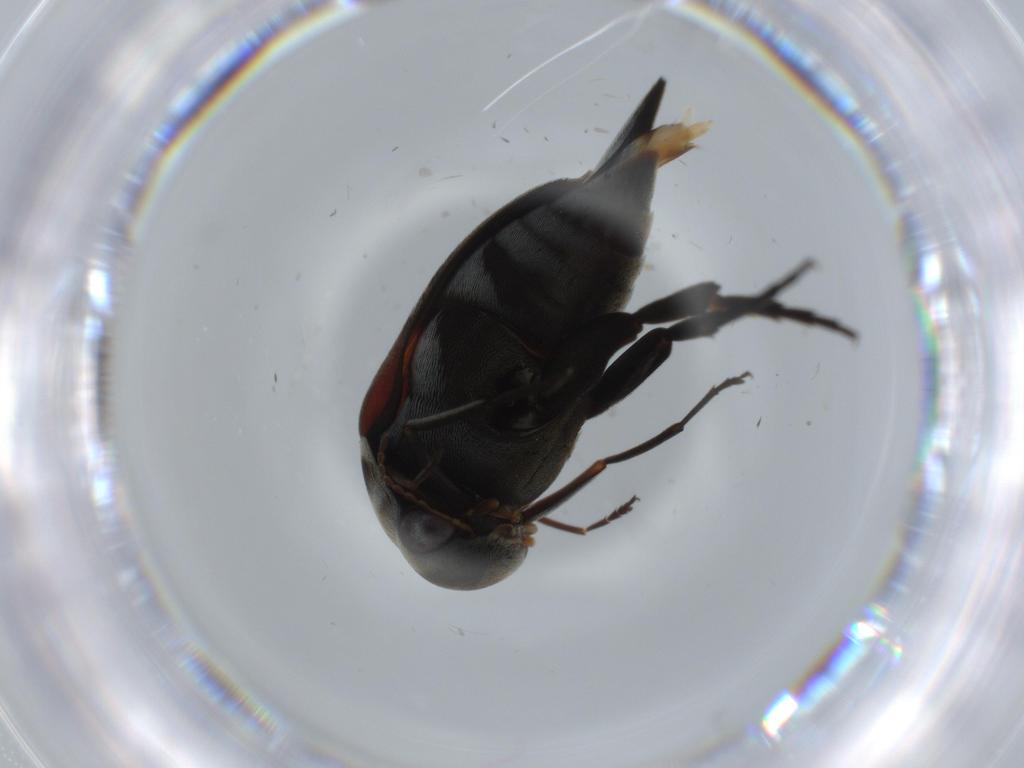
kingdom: Animalia
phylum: Arthropoda
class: Insecta
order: Coleoptera
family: Mordellidae
